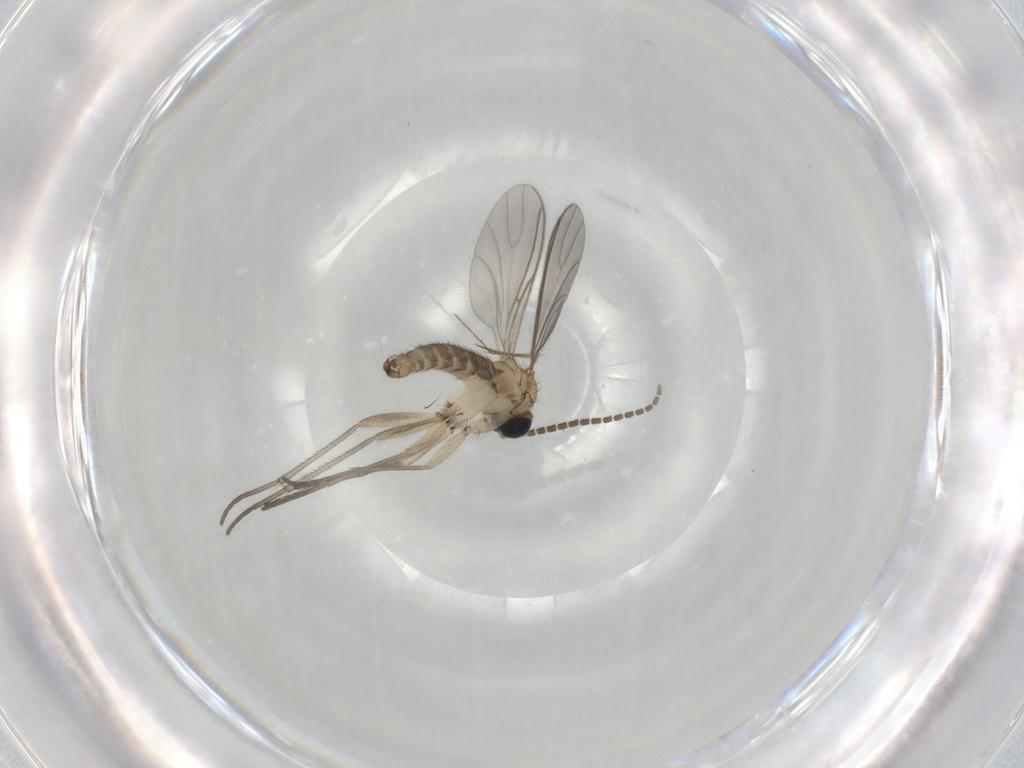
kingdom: Animalia
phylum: Arthropoda
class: Insecta
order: Diptera
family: Sciaridae
